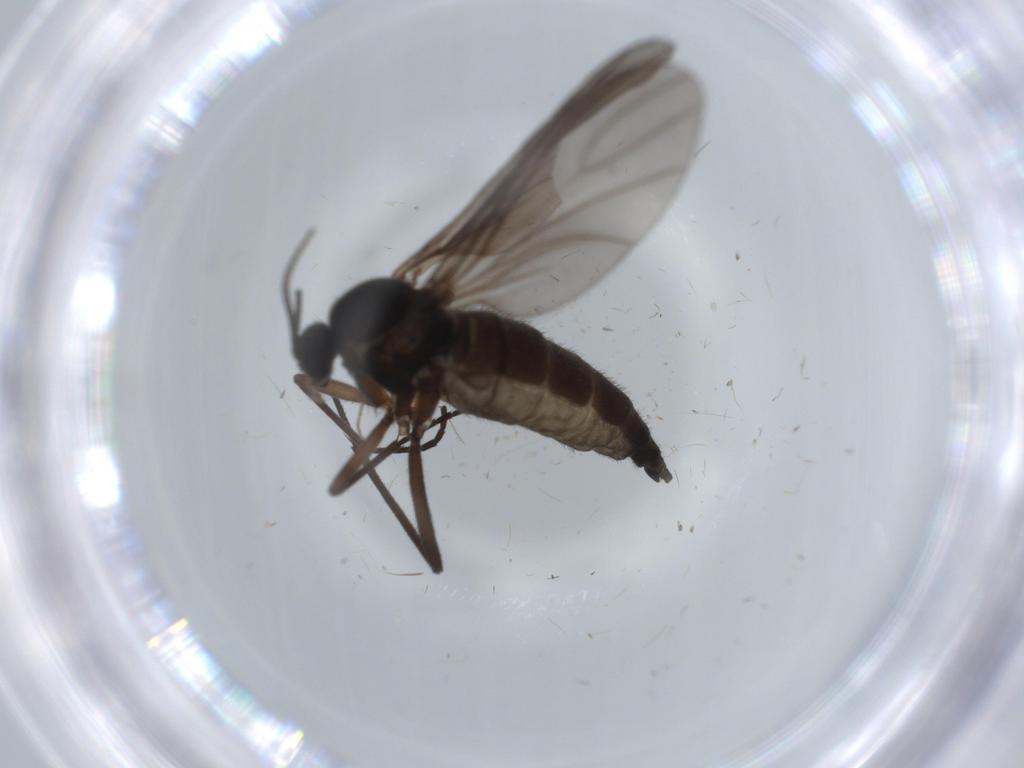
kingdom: Animalia
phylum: Arthropoda
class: Insecta
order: Diptera
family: Sciaridae
